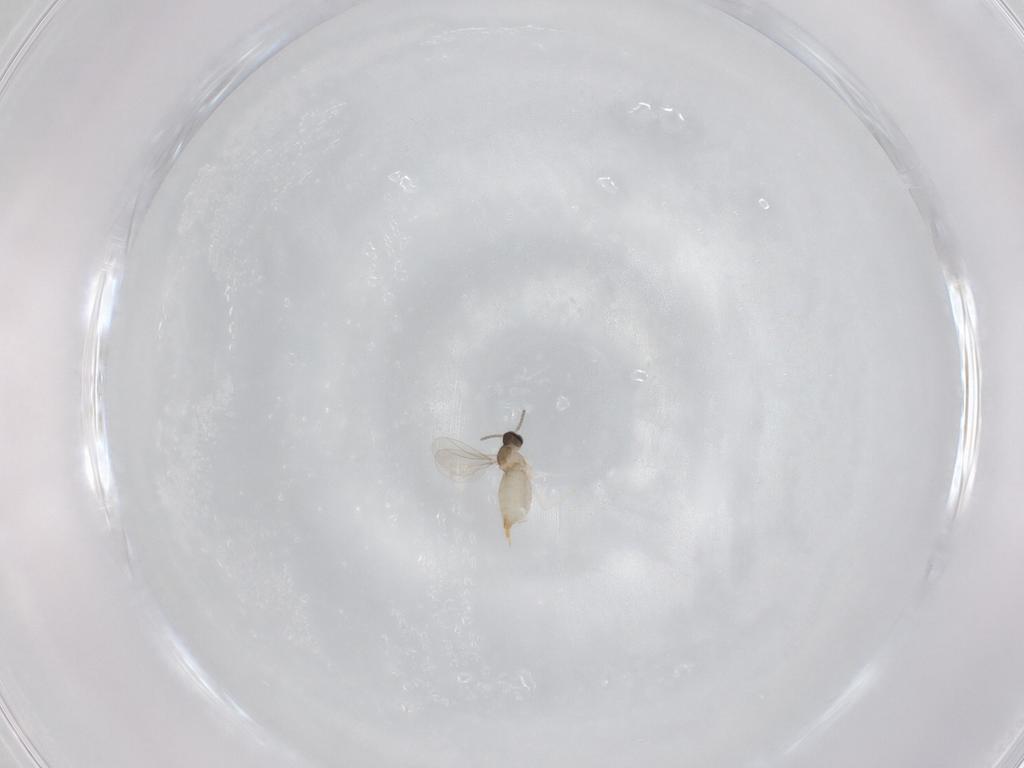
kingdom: Animalia
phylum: Arthropoda
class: Insecta
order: Diptera
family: Cecidomyiidae
